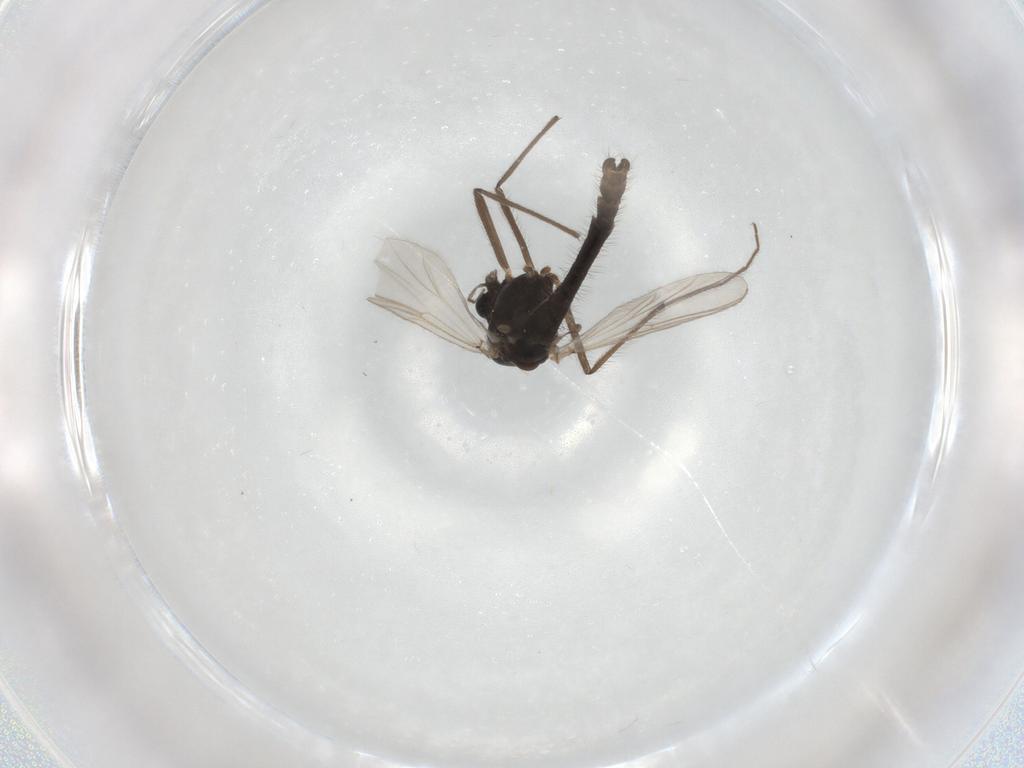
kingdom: Animalia
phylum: Arthropoda
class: Insecta
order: Diptera
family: Chironomidae
